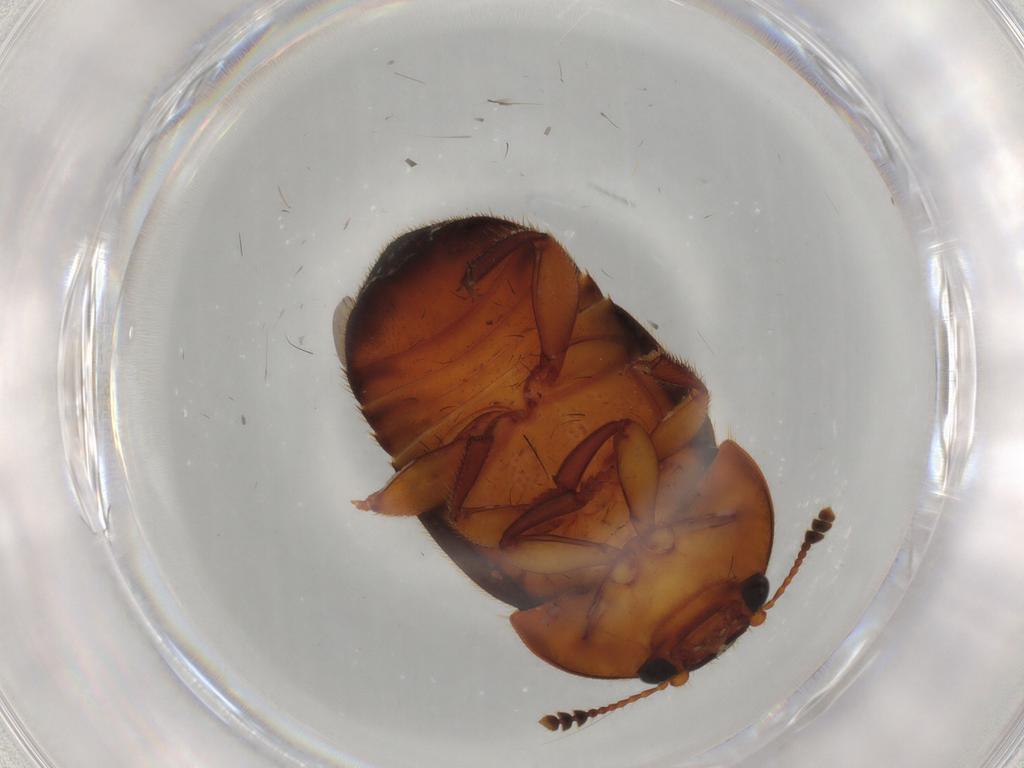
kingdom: Animalia
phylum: Arthropoda
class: Insecta
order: Coleoptera
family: Nitidulidae
